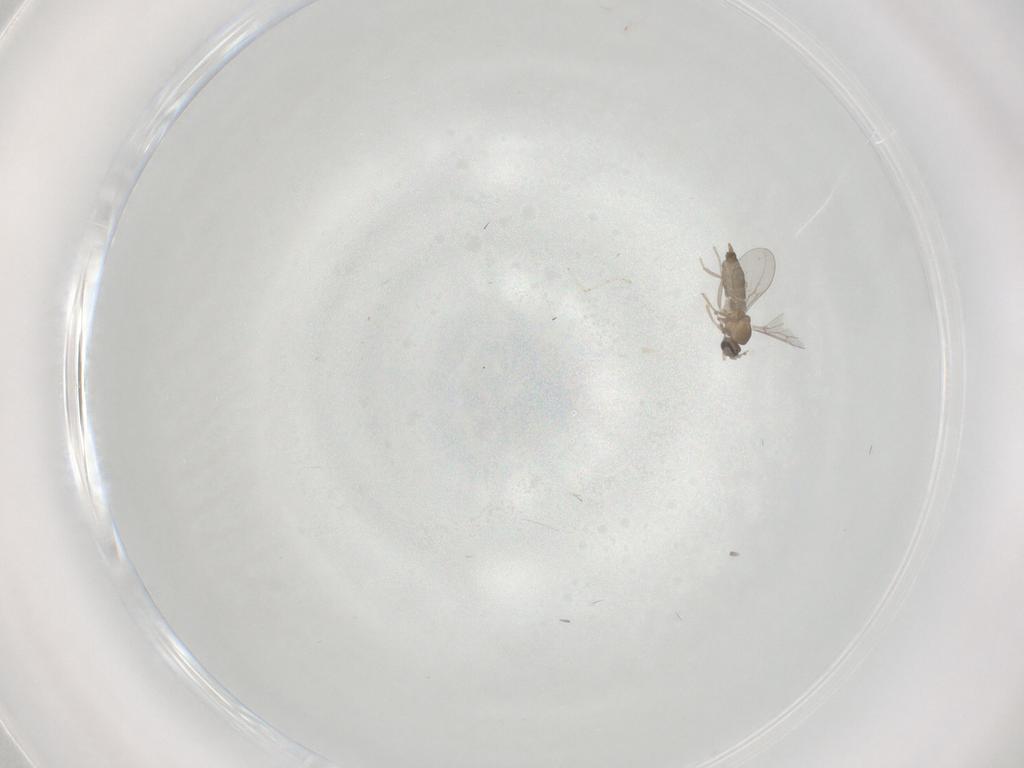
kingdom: Animalia
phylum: Arthropoda
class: Insecta
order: Diptera
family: Cecidomyiidae
